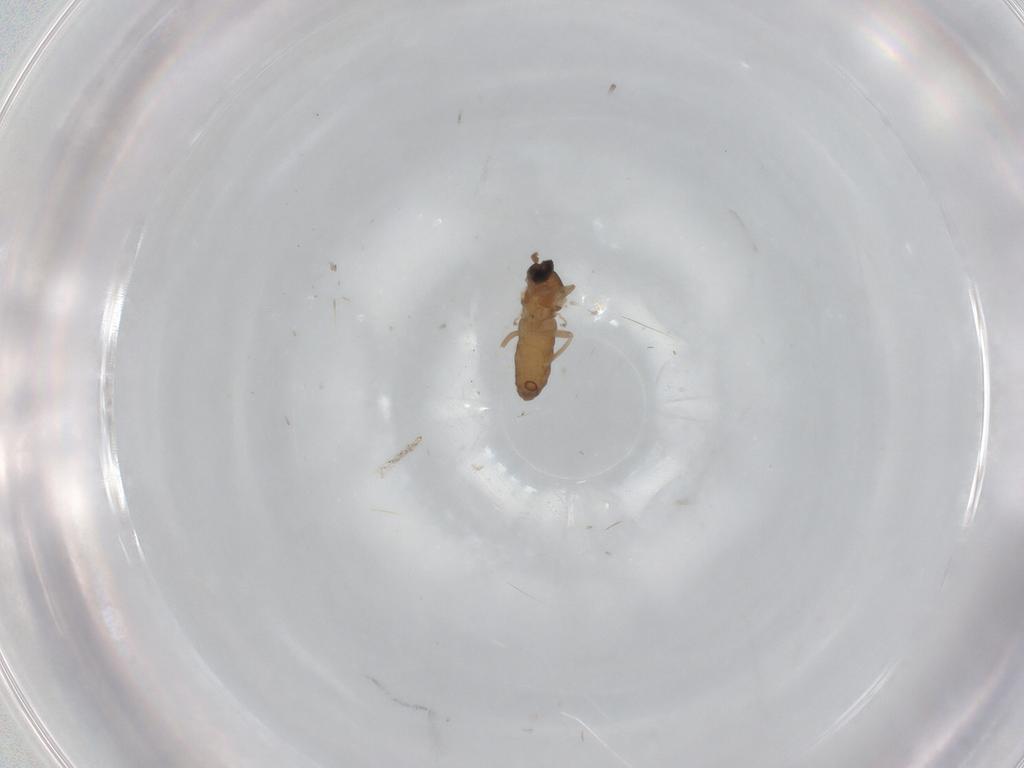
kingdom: Animalia
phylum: Arthropoda
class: Insecta
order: Diptera
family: Cecidomyiidae
